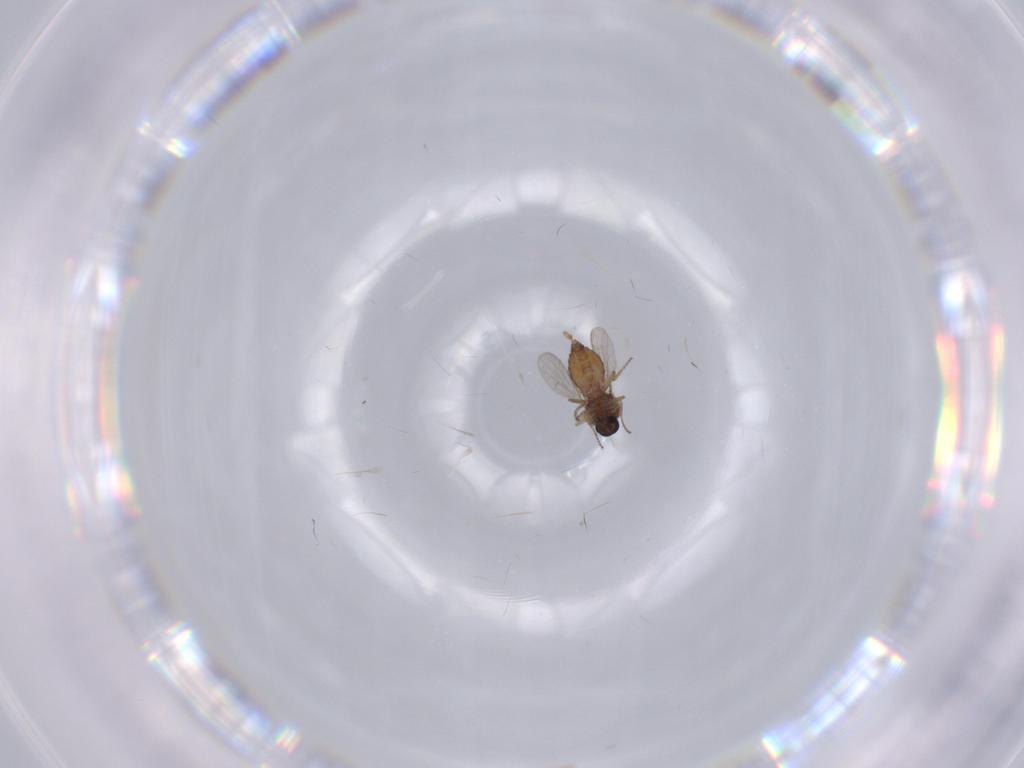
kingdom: Animalia
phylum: Arthropoda
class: Insecta
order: Diptera
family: Ceratopogonidae
